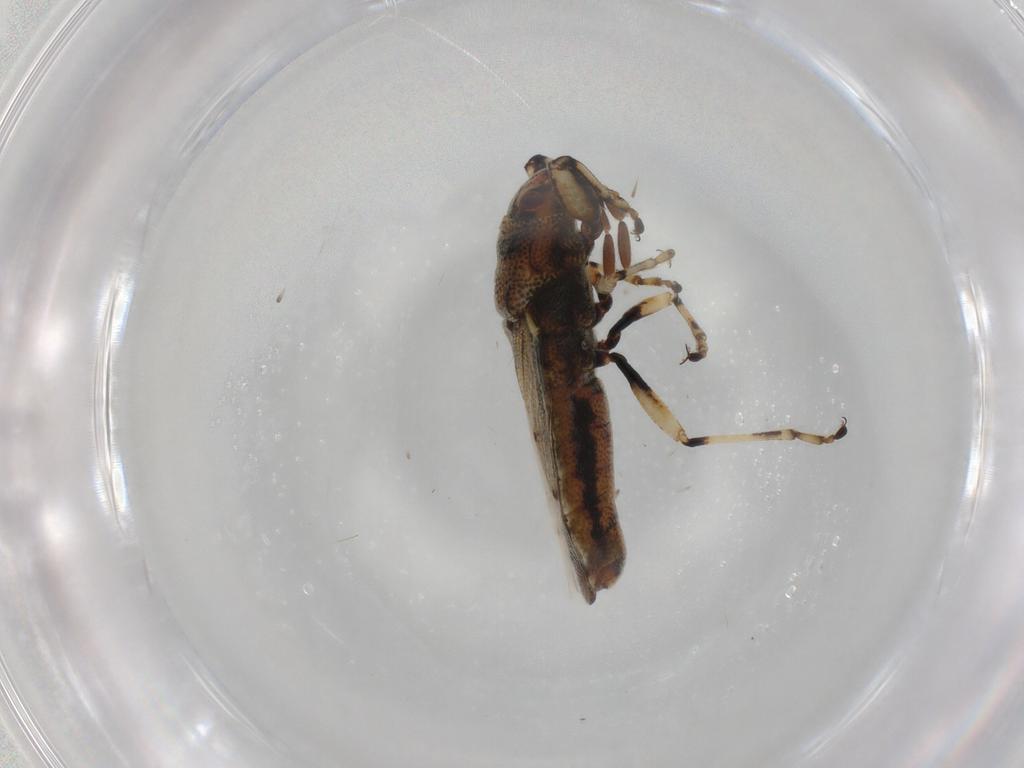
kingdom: Animalia
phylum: Arthropoda
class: Insecta
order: Hemiptera
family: Pachygronthidae
